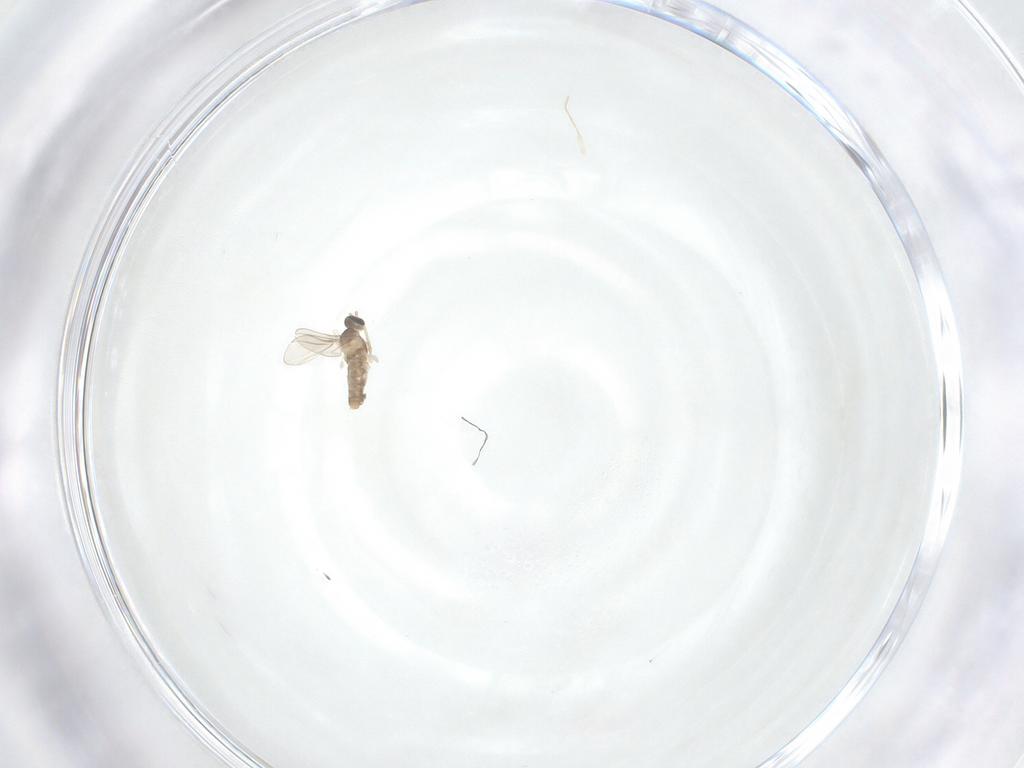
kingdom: Animalia
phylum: Arthropoda
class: Insecta
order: Diptera
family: Cecidomyiidae
